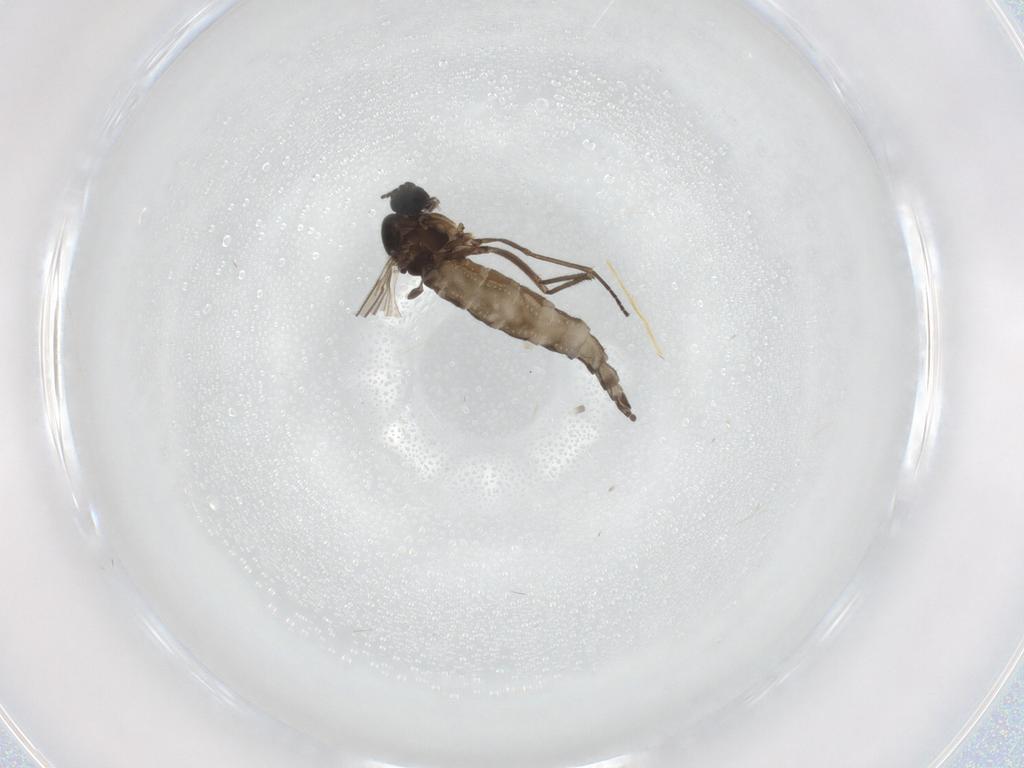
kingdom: Animalia
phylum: Arthropoda
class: Insecta
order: Diptera
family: Sciaridae
